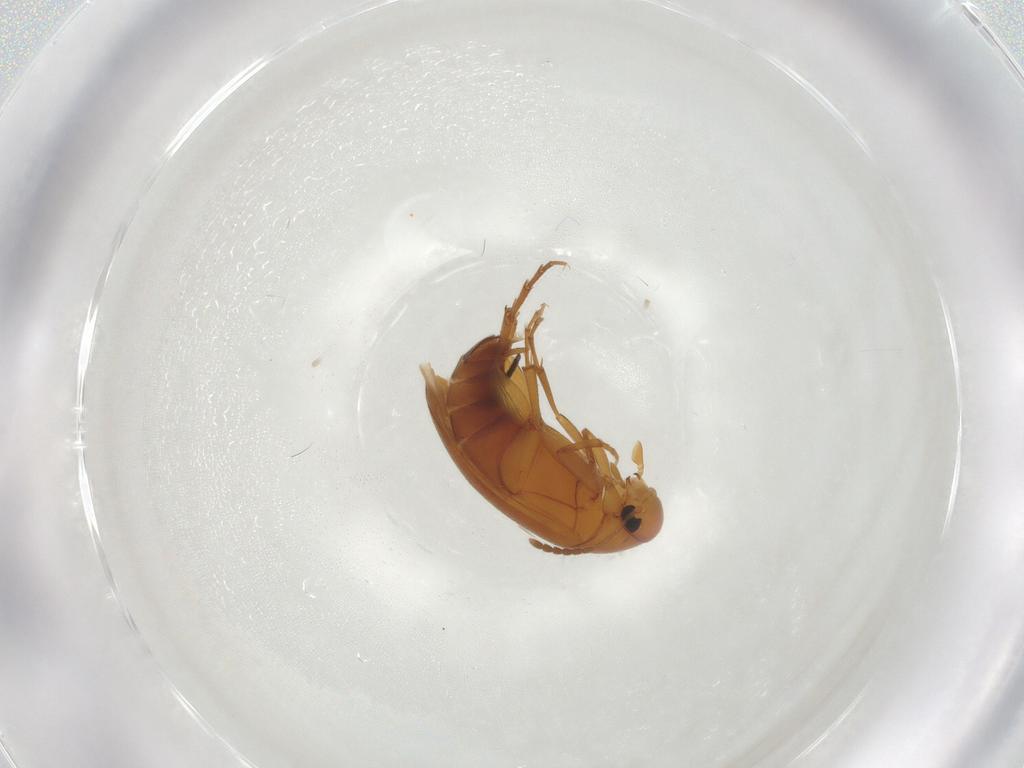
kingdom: Animalia
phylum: Arthropoda
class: Insecta
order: Coleoptera
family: Scraptiidae
